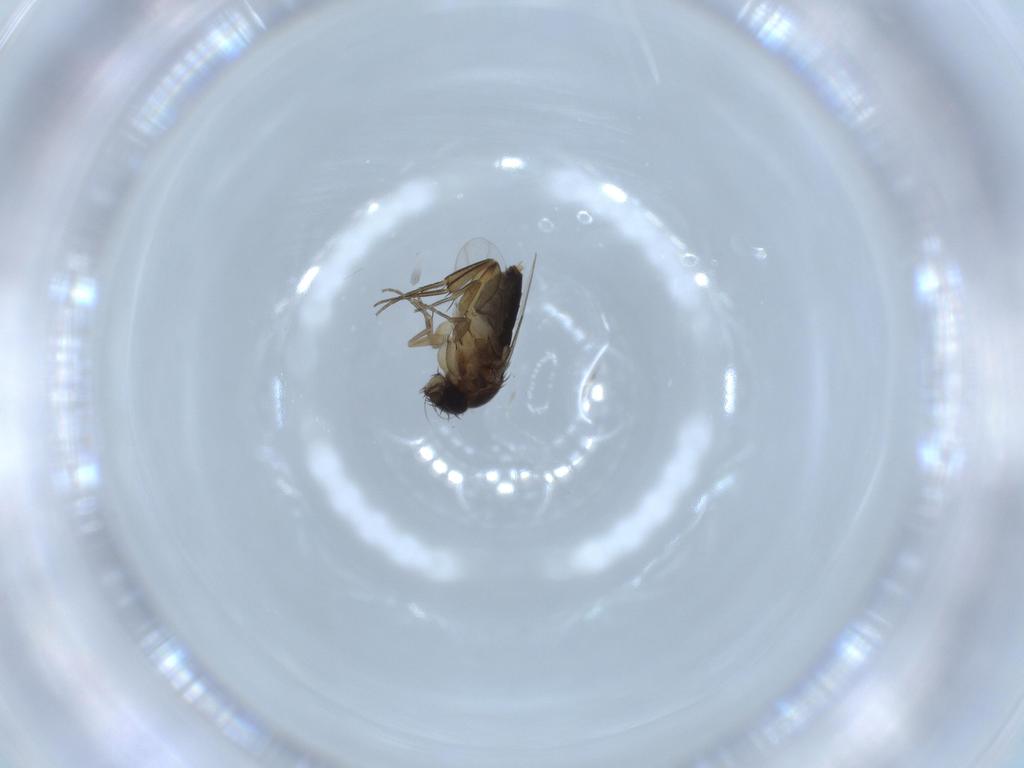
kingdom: Animalia
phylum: Arthropoda
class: Insecta
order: Diptera
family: Phoridae
